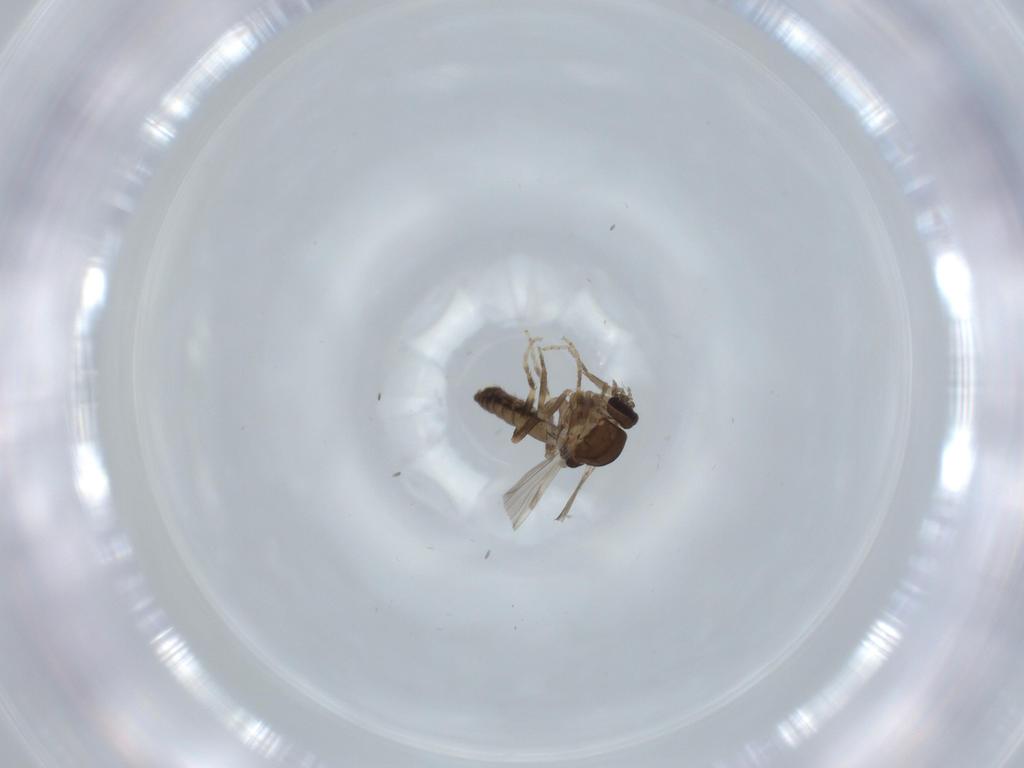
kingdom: Animalia
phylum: Arthropoda
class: Insecta
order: Diptera
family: Ceratopogonidae
